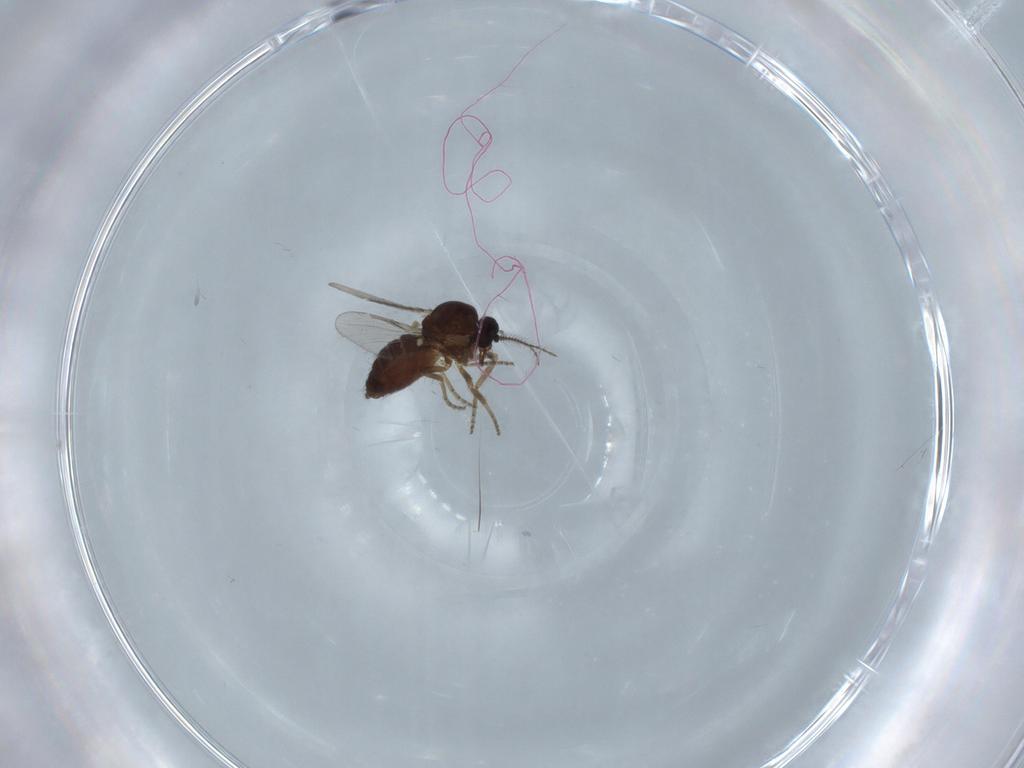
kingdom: Animalia
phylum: Arthropoda
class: Insecta
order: Diptera
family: Ceratopogonidae
